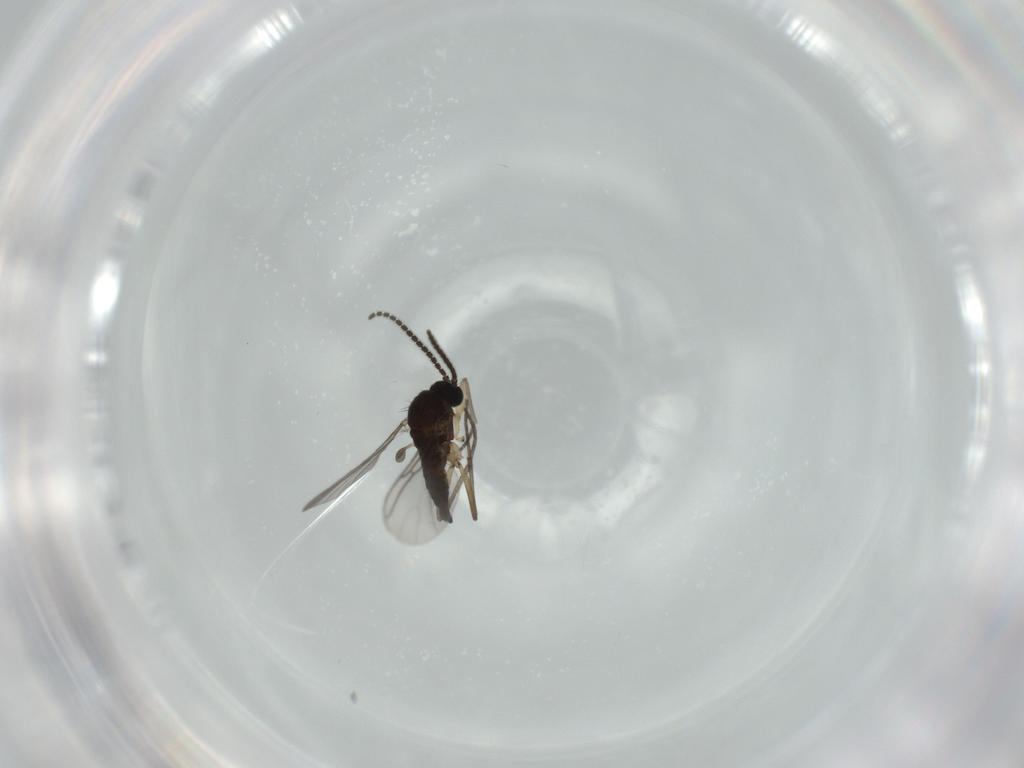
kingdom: Animalia
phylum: Arthropoda
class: Insecta
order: Diptera
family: Sciaridae
